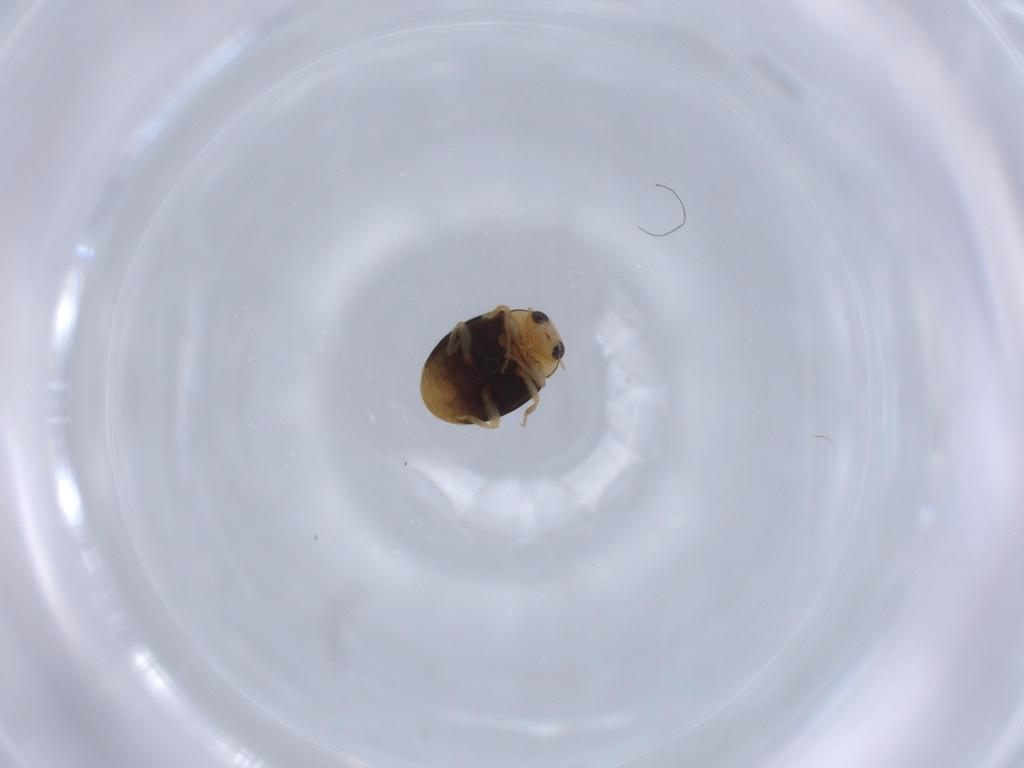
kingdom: Animalia
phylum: Arthropoda
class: Insecta
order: Coleoptera
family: Coccinellidae
